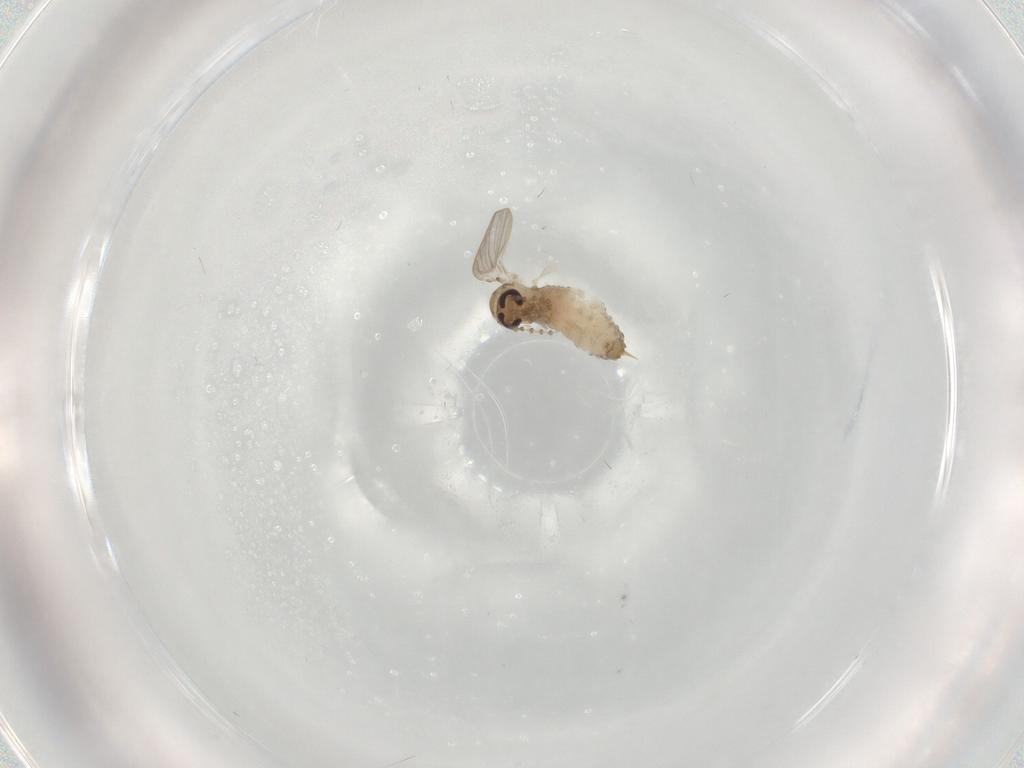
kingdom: Animalia
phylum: Arthropoda
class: Insecta
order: Diptera
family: Psychodidae
